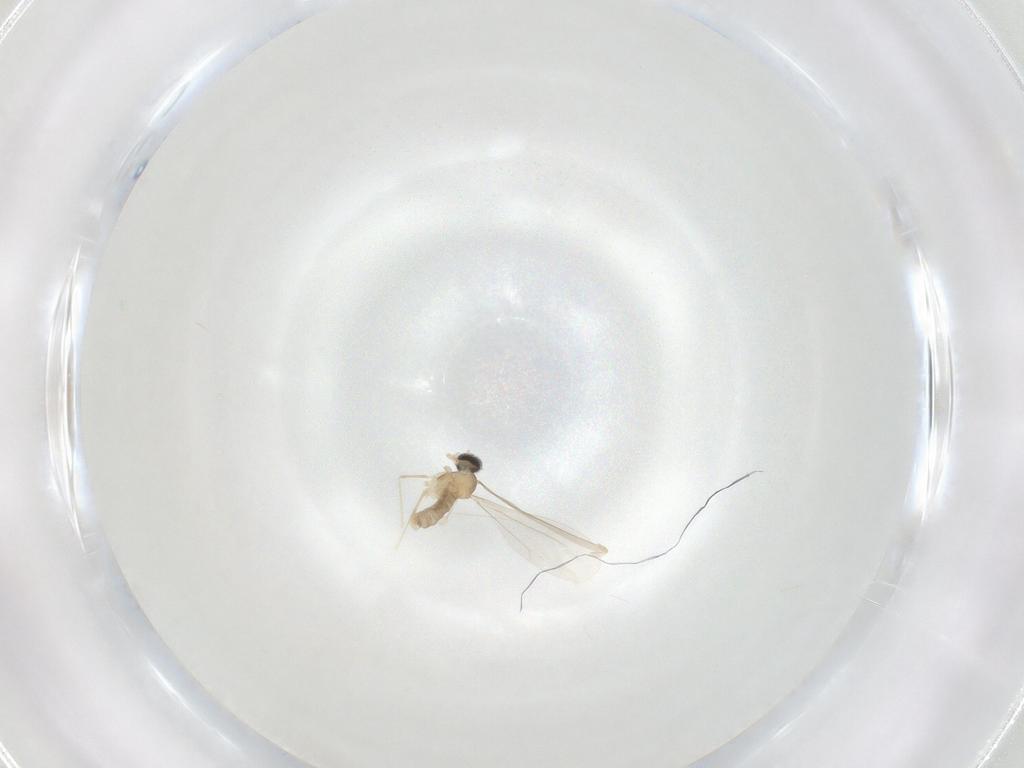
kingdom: Animalia
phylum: Arthropoda
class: Insecta
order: Diptera
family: Cecidomyiidae
